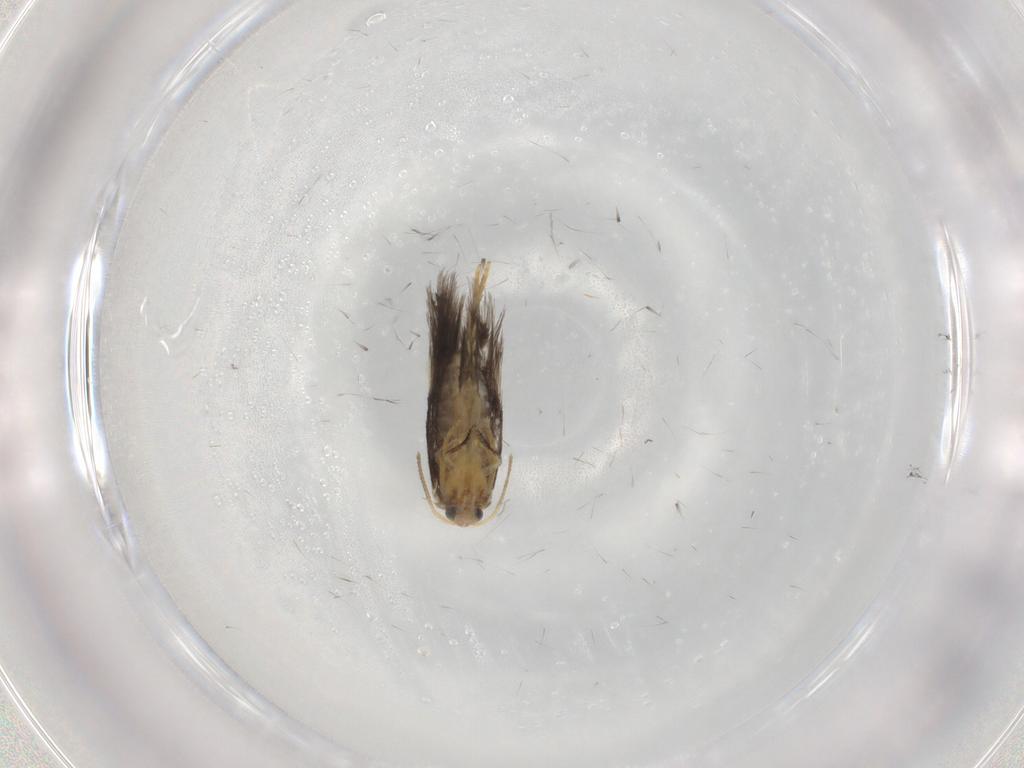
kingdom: Animalia
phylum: Arthropoda
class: Insecta
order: Lepidoptera
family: Nepticulidae
